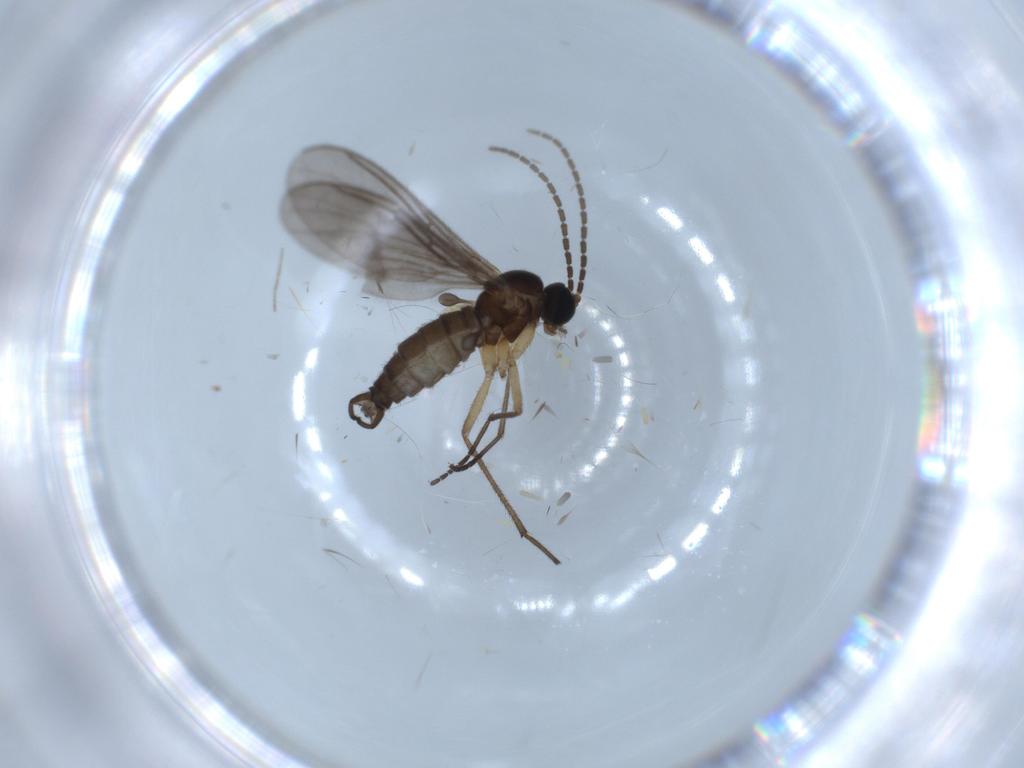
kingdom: Animalia
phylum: Arthropoda
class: Insecta
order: Diptera
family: Sciaridae
